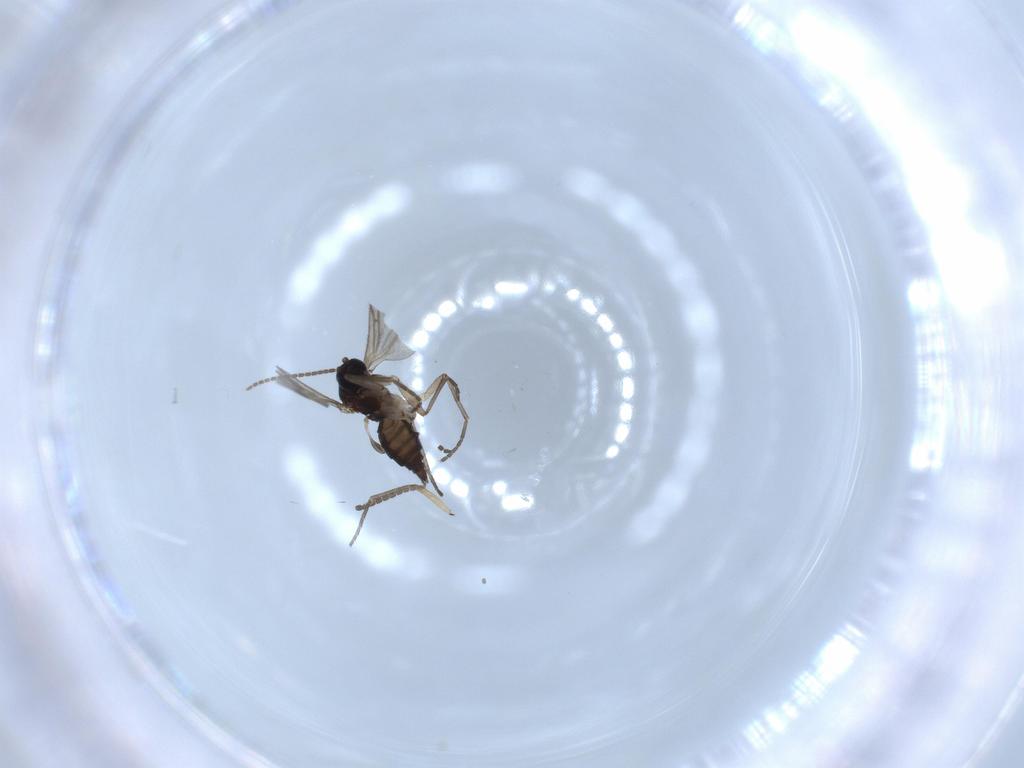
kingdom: Animalia
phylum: Arthropoda
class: Insecta
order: Diptera
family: Sciaridae
